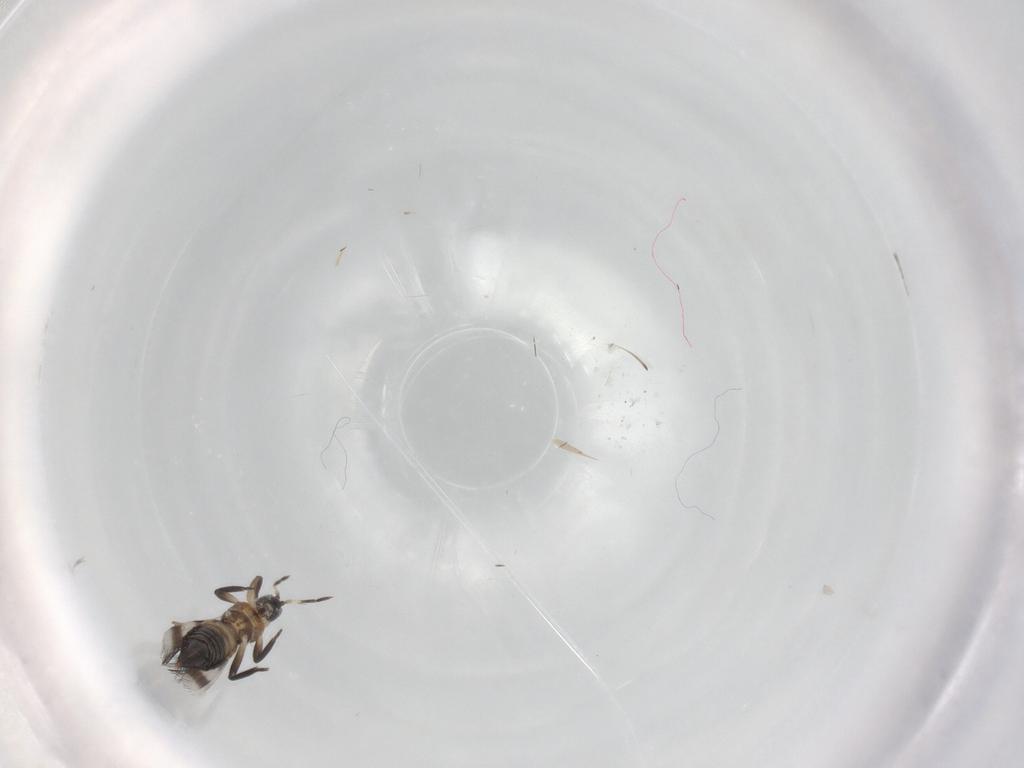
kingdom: Animalia
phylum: Arthropoda
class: Insecta
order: Thysanoptera
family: Aeolothripidae
